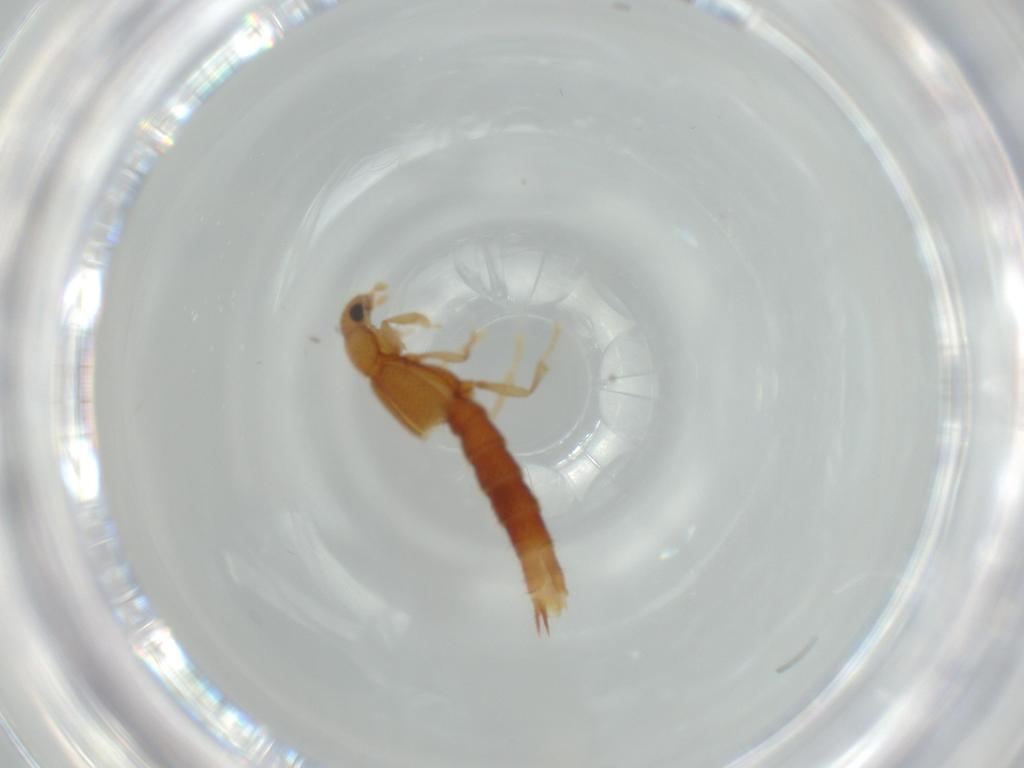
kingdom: Animalia
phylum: Arthropoda
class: Insecta
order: Coleoptera
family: Staphylinidae
